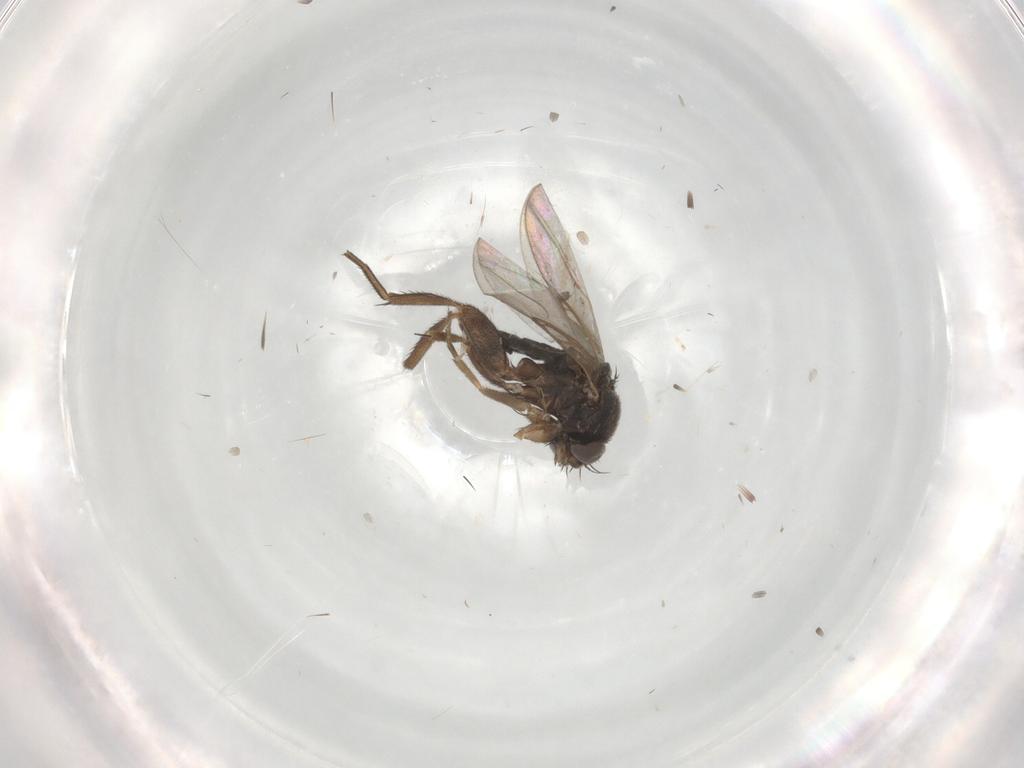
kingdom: Animalia
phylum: Arthropoda
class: Insecta
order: Diptera
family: Phoridae
